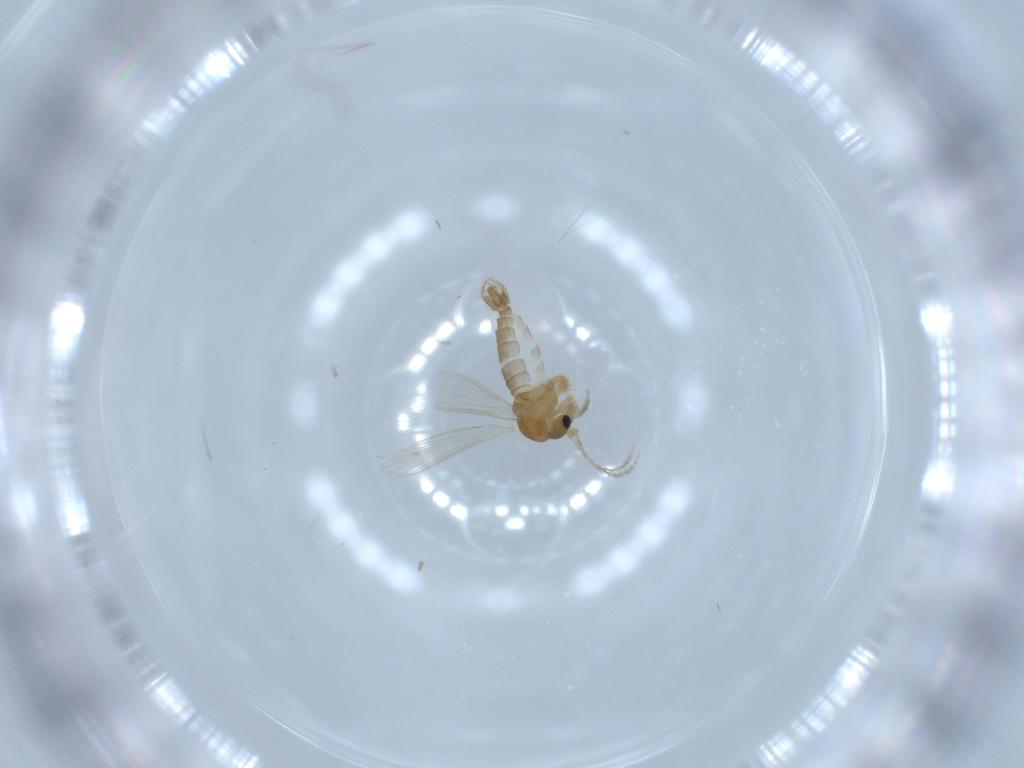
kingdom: Animalia
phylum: Arthropoda
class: Insecta
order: Diptera
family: Psychodidae
